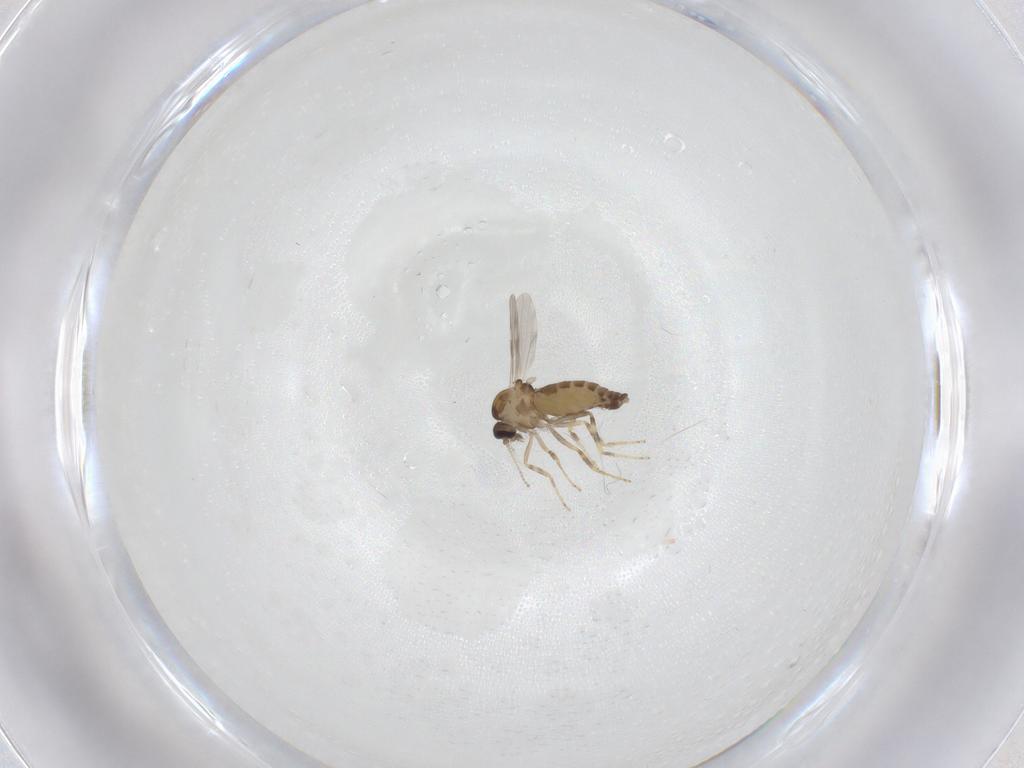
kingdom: Animalia
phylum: Arthropoda
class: Insecta
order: Diptera
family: Ceratopogonidae
